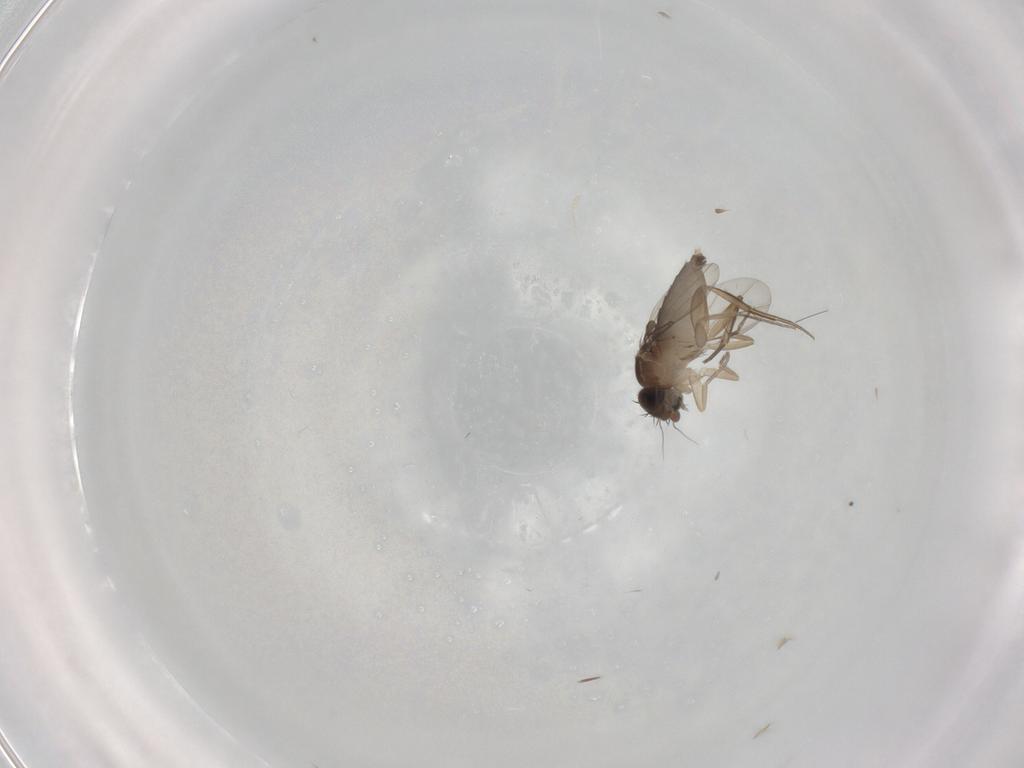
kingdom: Animalia
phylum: Arthropoda
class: Insecta
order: Diptera
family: Phoridae
